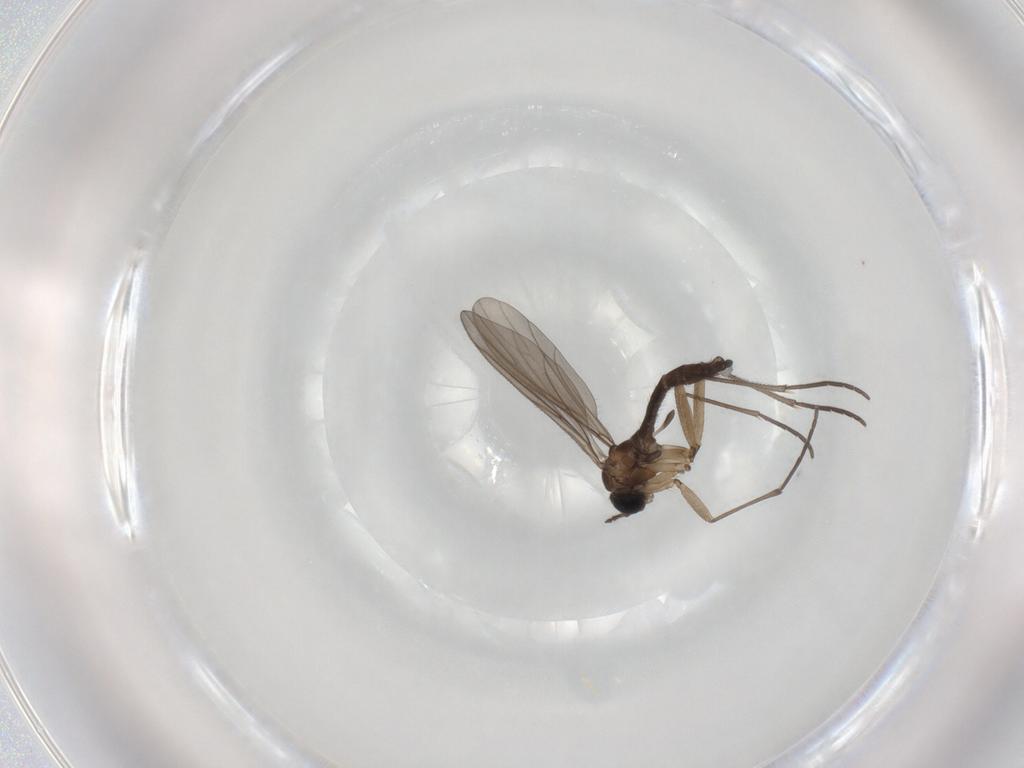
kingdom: Animalia
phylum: Arthropoda
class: Insecta
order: Diptera
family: Sciaridae
